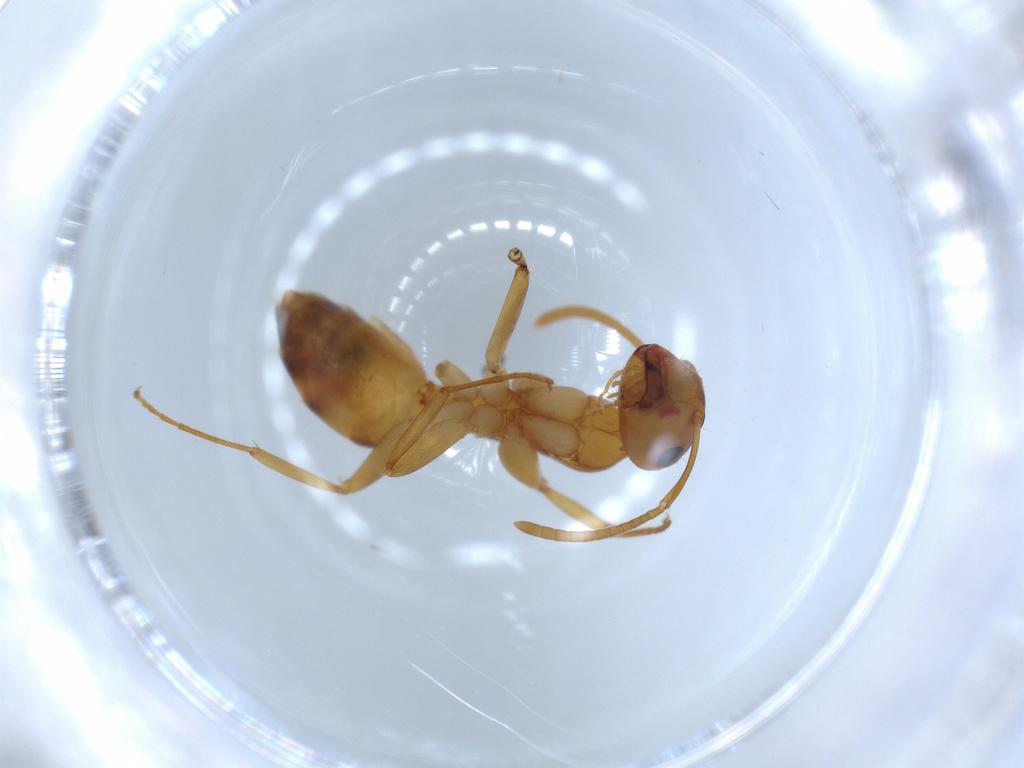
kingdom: Animalia
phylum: Arthropoda
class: Insecta
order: Hymenoptera
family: Formicidae
